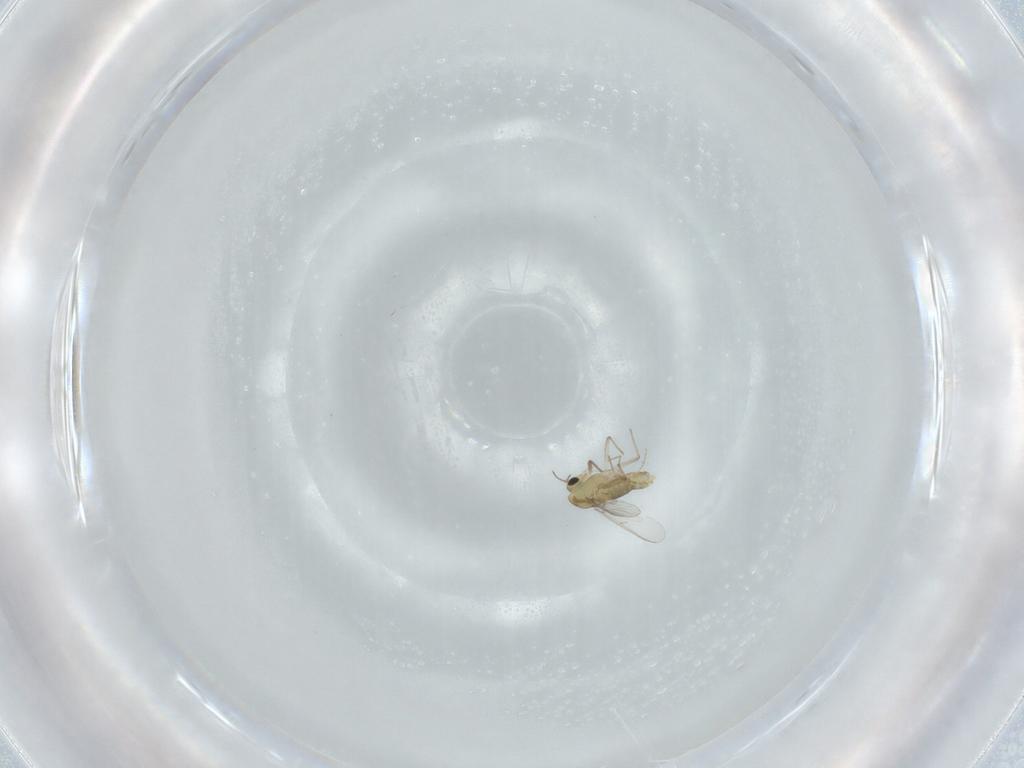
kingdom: Animalia
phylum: Arthropoda
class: Insecta
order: Diptera
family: Chironomidae
